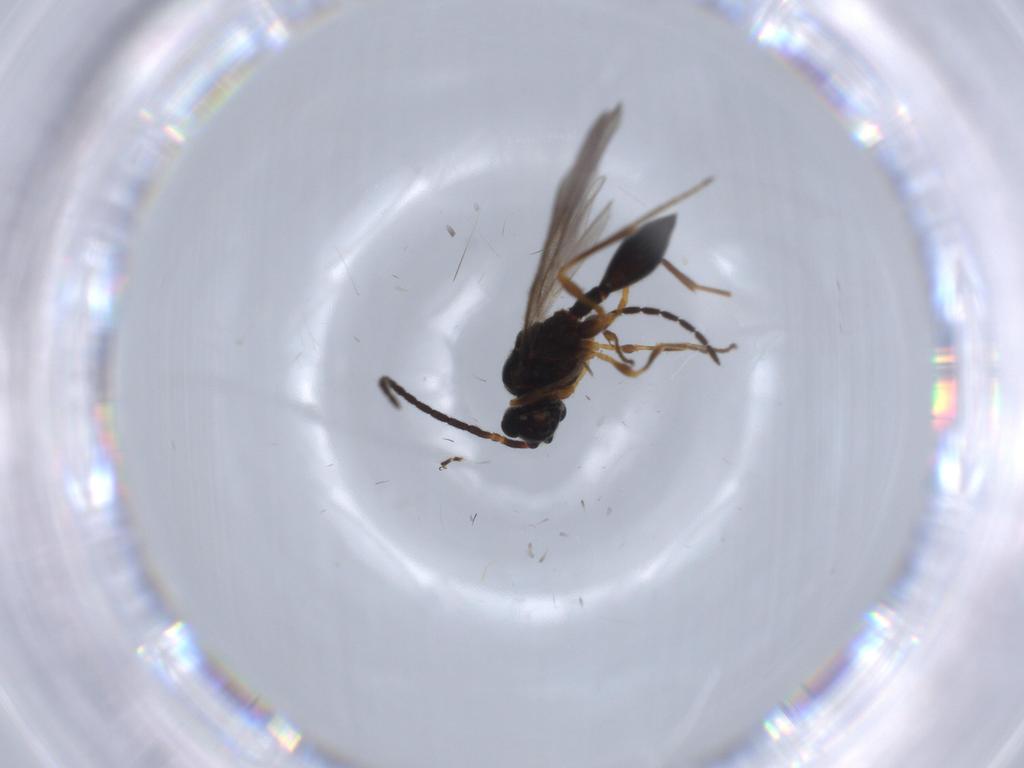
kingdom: Animalia
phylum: Arthropoda
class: Insecta
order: Hymenoptera
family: Diapriidae
